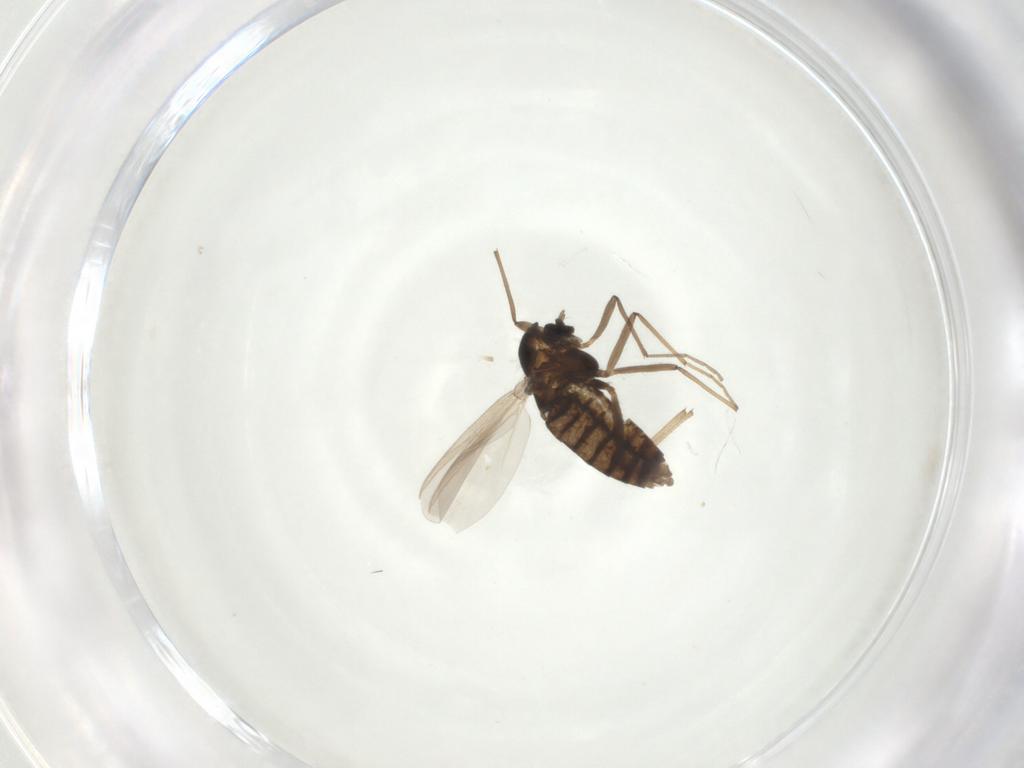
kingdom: Animalia
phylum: Arthropoda
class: Insecta
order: Diptera
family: Chironomidae
